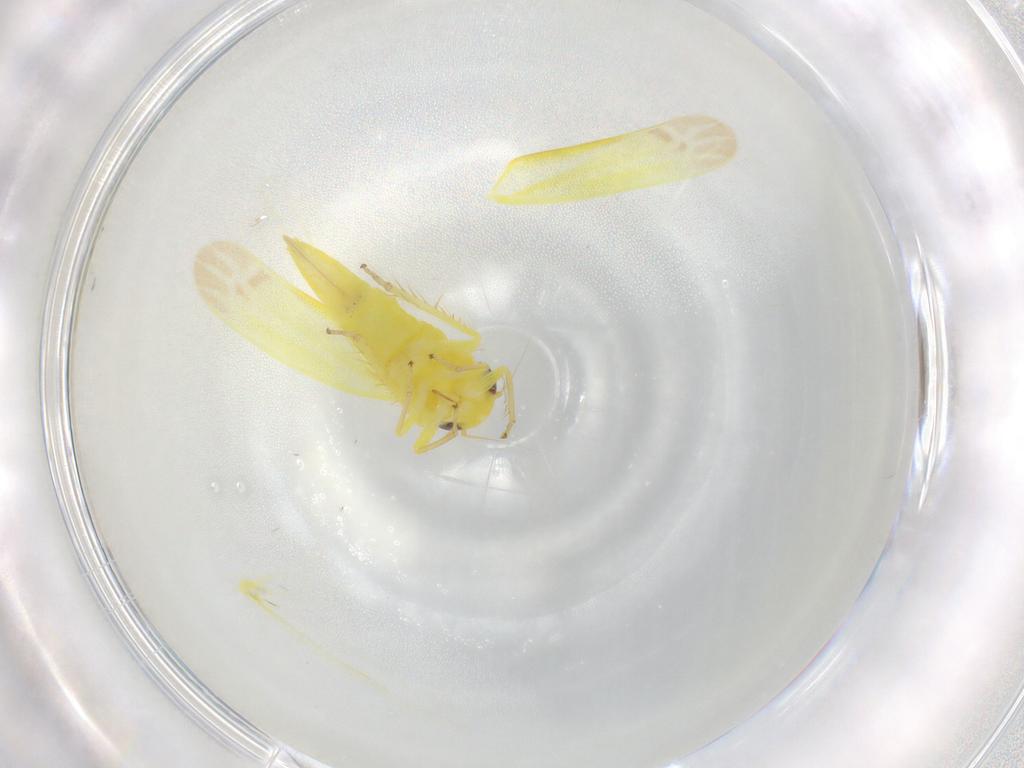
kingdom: Animalia
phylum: Arthropoda
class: Insecta
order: Hemiptera
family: Cicadellidae
